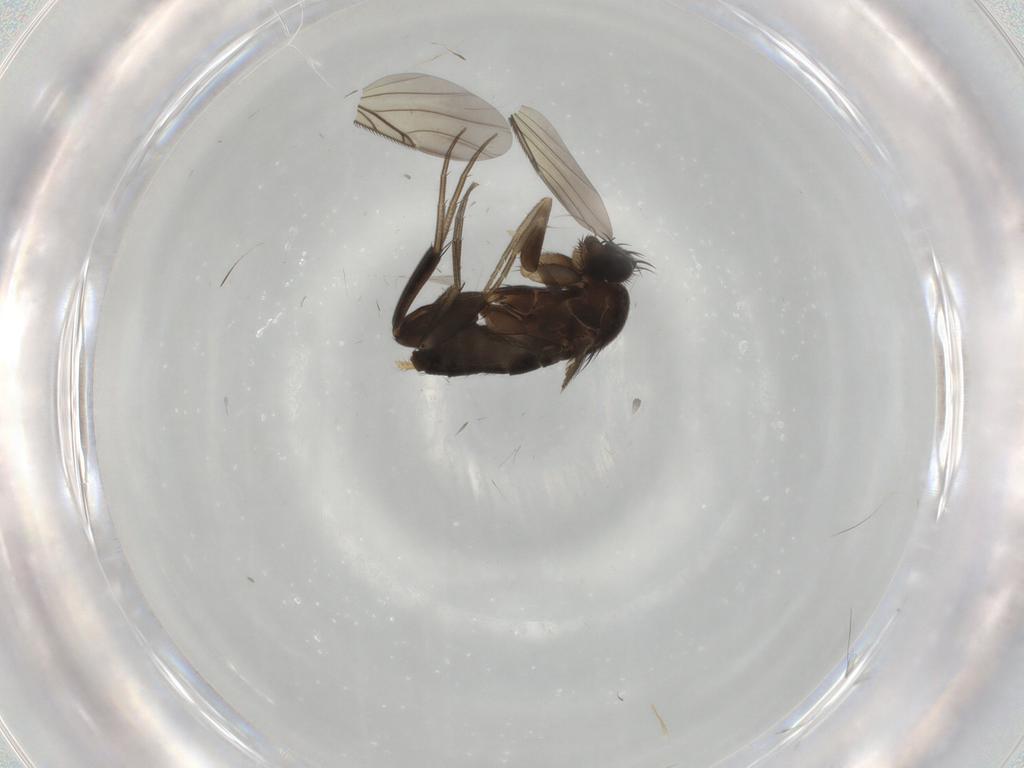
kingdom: Animalia
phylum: Arthropoda
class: Insecta
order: Diptera
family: Phoridae
